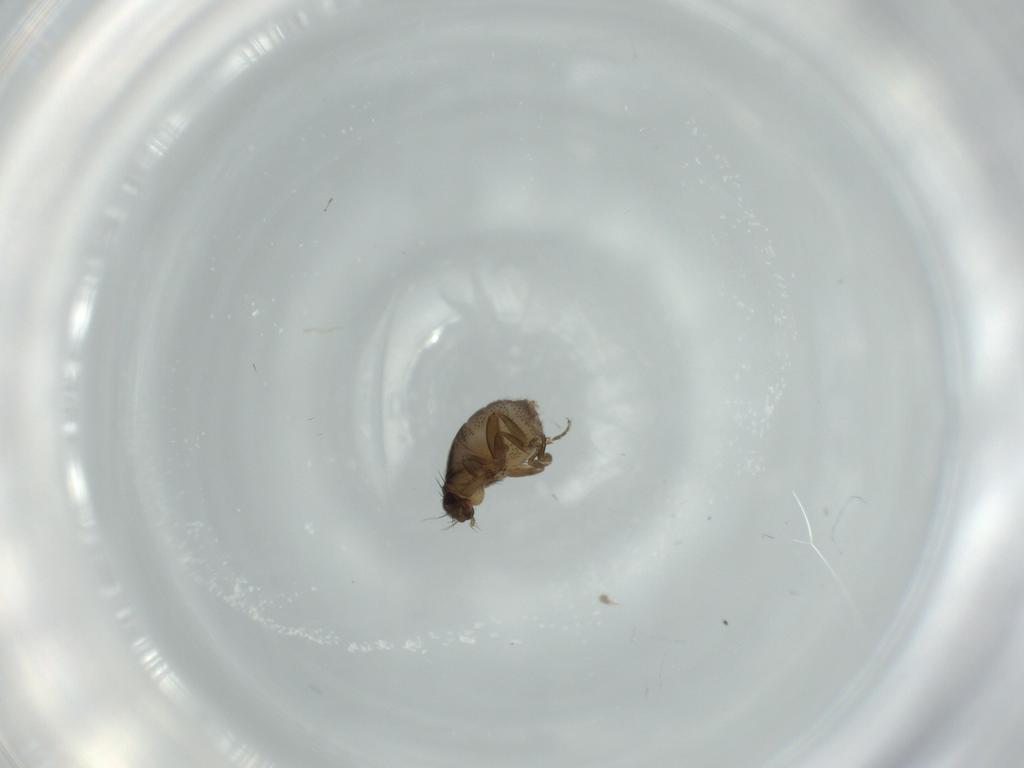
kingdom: Animalia
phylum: Arthropoda
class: Insecta
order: Diptera
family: Phoridae
